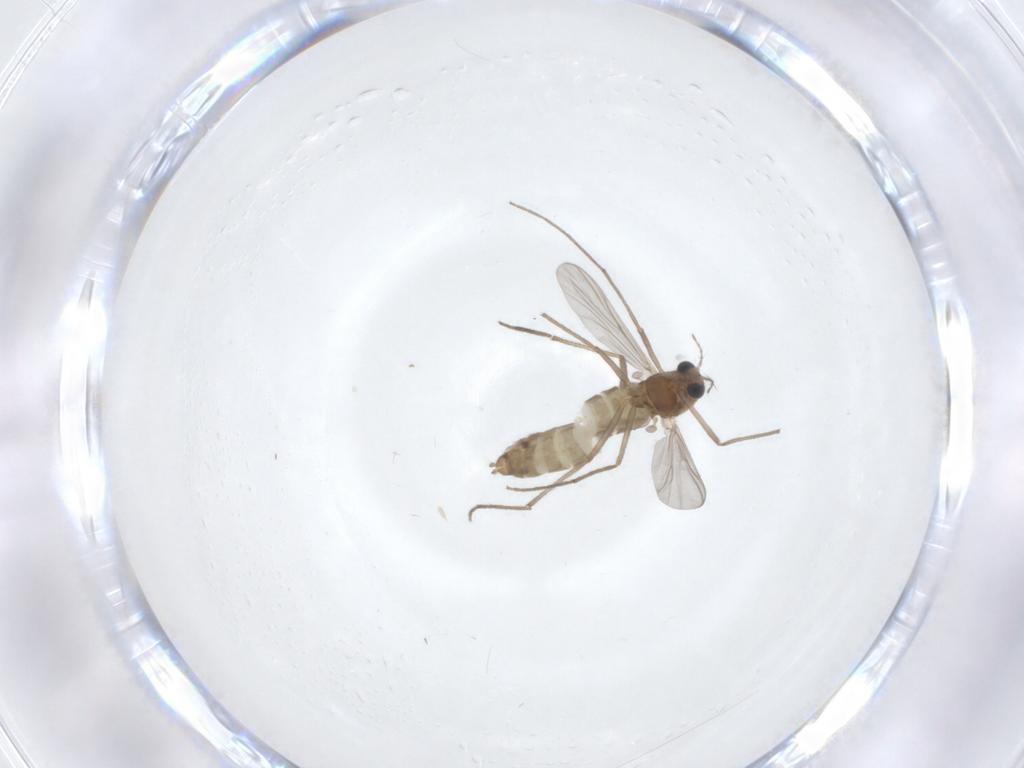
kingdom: Animalia
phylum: Arthropoda
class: Insecta
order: Diptera
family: Chironomidae
